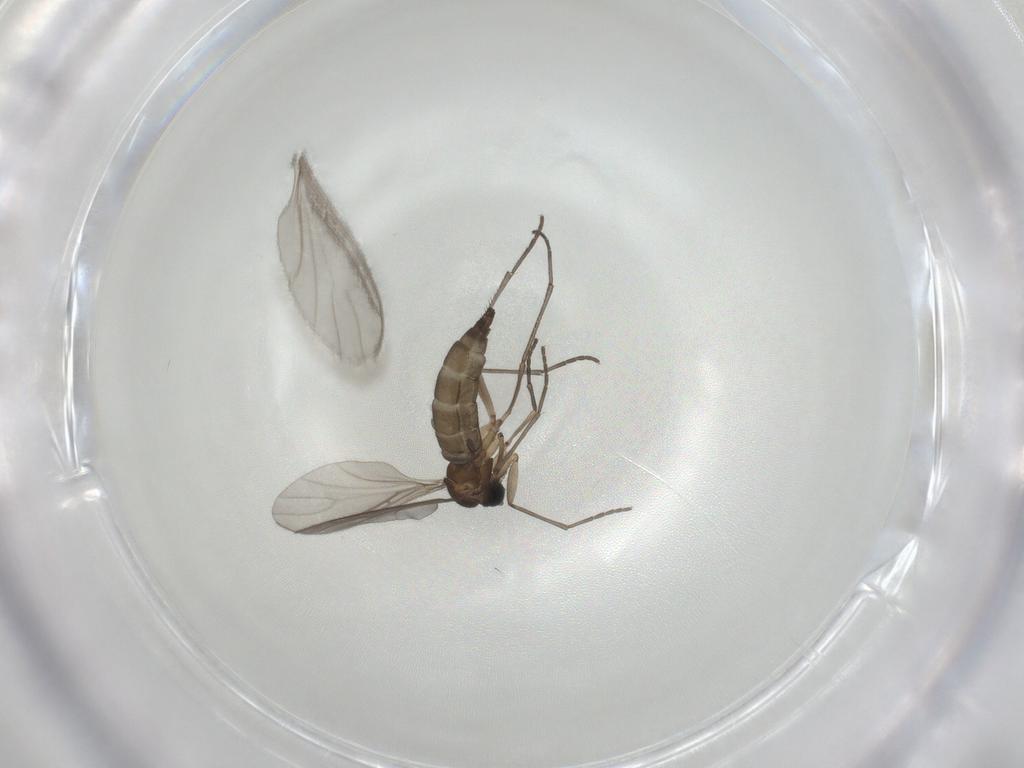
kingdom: Animalia
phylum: Arthropoda
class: Insecta
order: Diptera
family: Sciaridae
